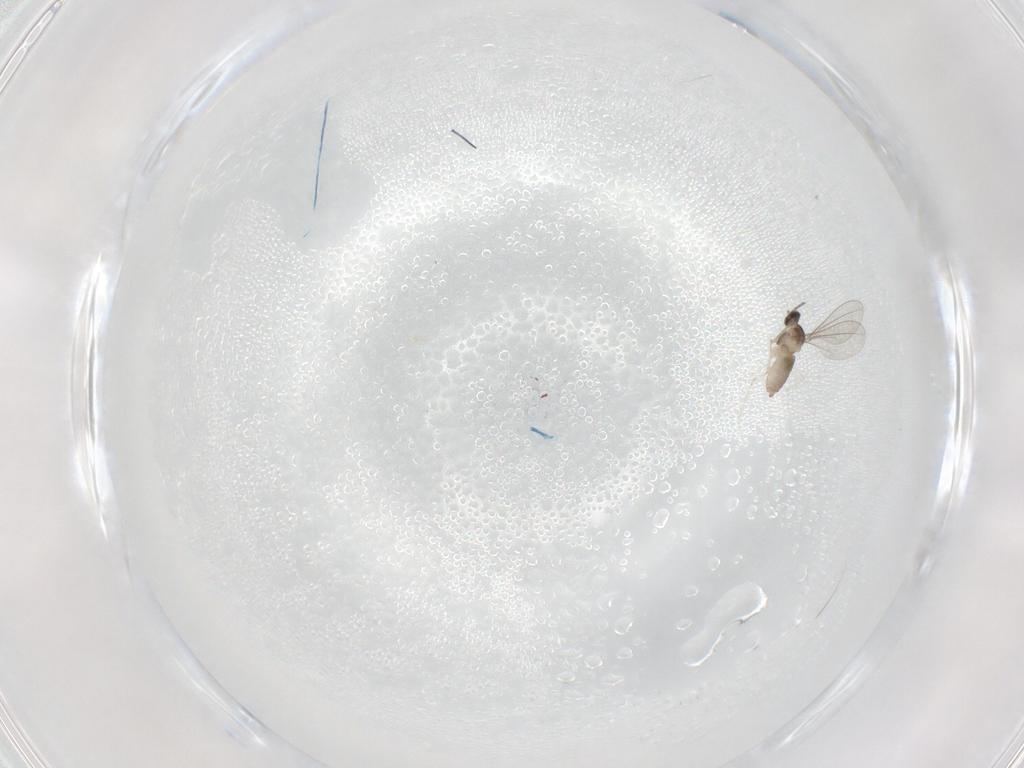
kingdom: Animalia
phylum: Arthropoda
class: Insecta
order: Diptera
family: Cecidomyiidae
